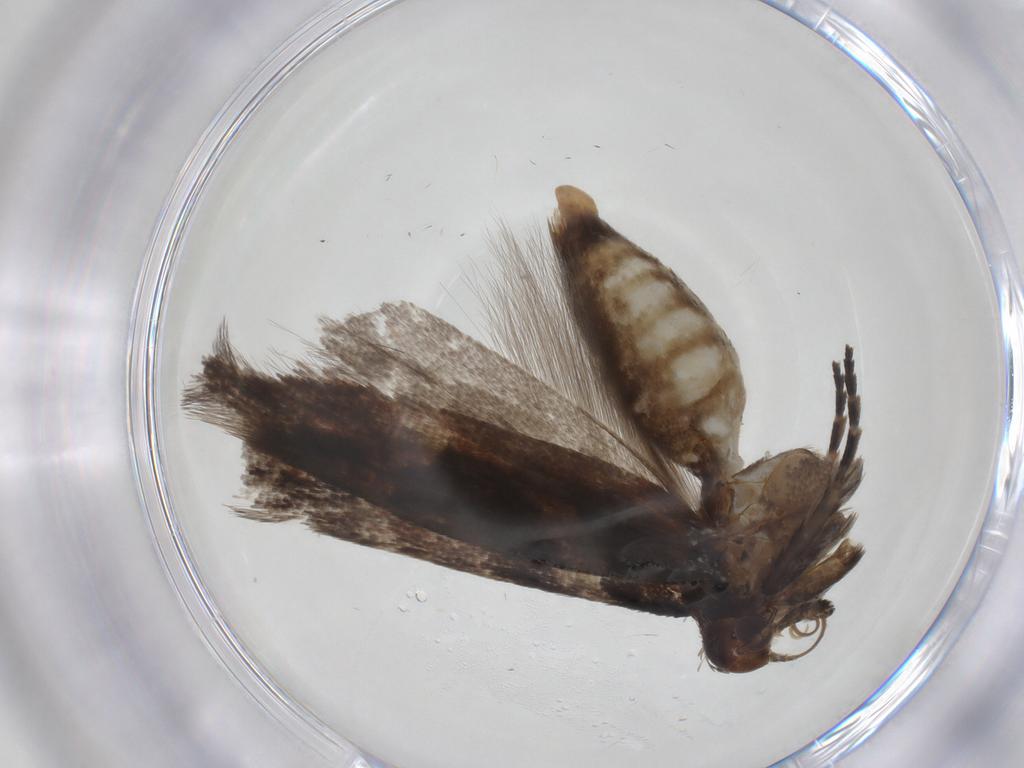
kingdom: Animalia
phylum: Arthropoda
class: Insecta
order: Lepidoptera
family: Gelechiidae
